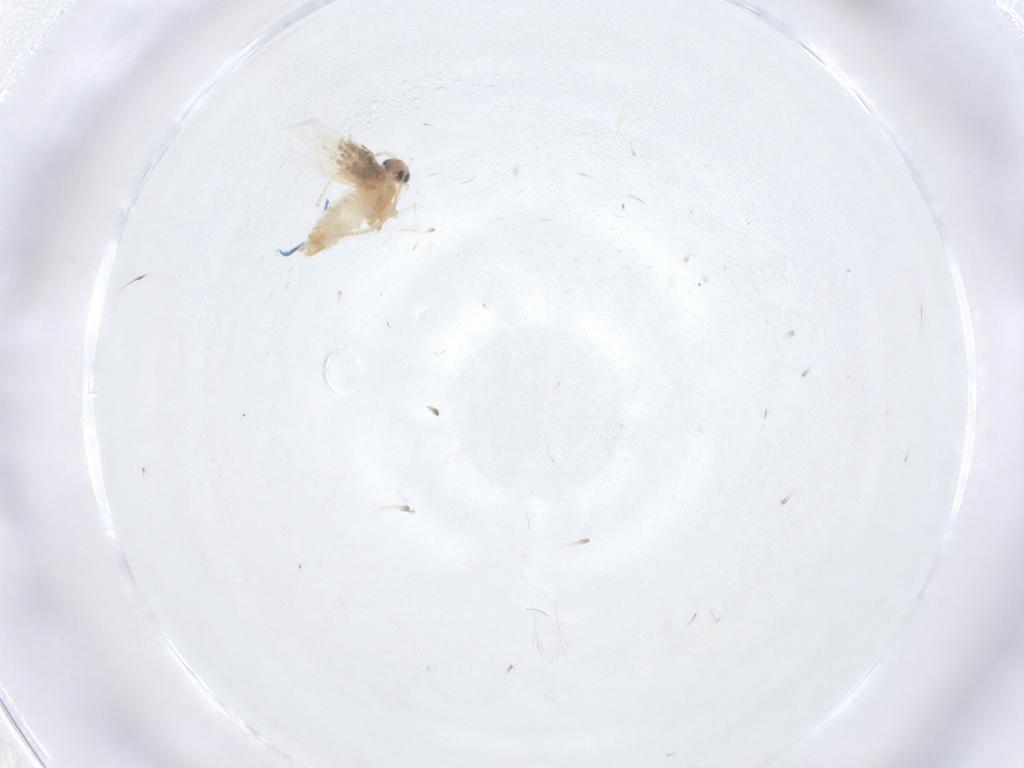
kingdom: Animalia
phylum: Arthropoda
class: Insecta
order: Lepidoptera
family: Nepticulidae
